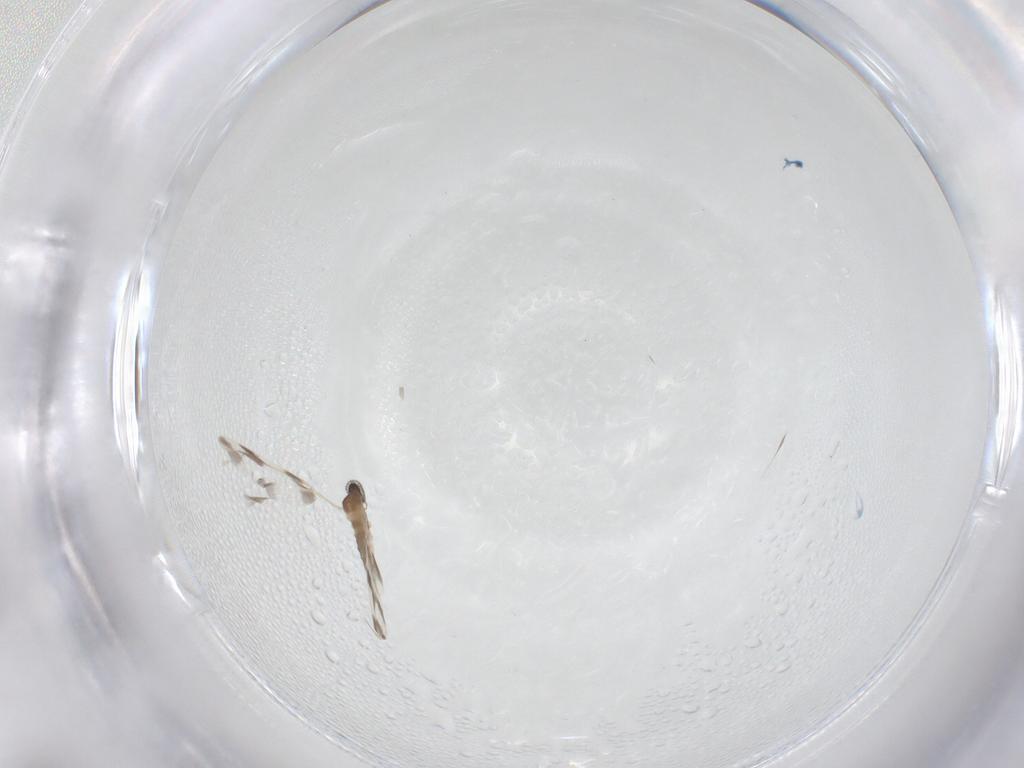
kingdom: Animalia
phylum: Arthropoda
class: Insecta
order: Diptera
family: Cecidomyiidae
